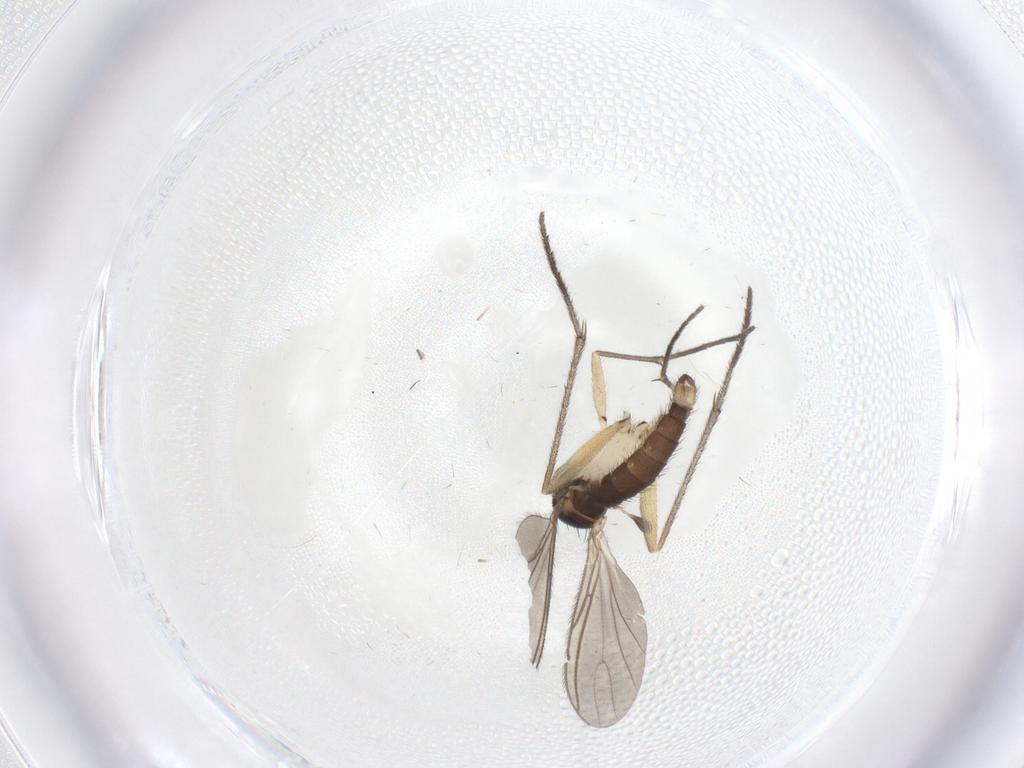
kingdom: Animalia
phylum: Arthropoda
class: Insecta
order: Diptera
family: Sciaridae
